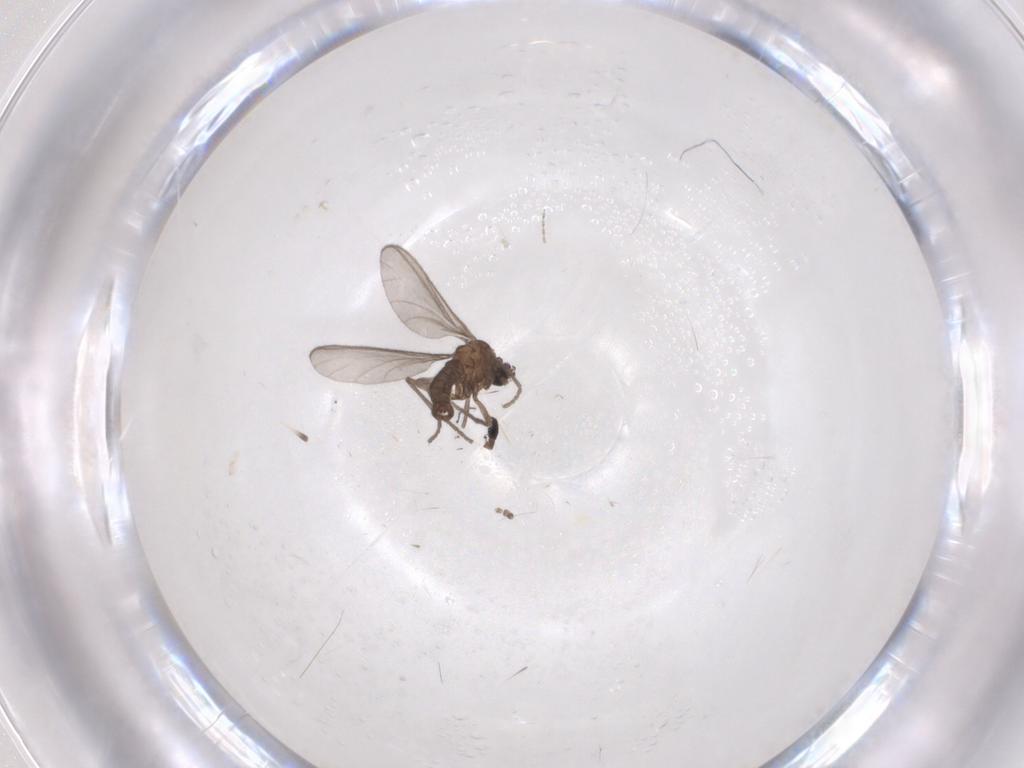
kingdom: Animalia
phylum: Arthropoda
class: Insecta
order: Diptera
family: Sciaridae
